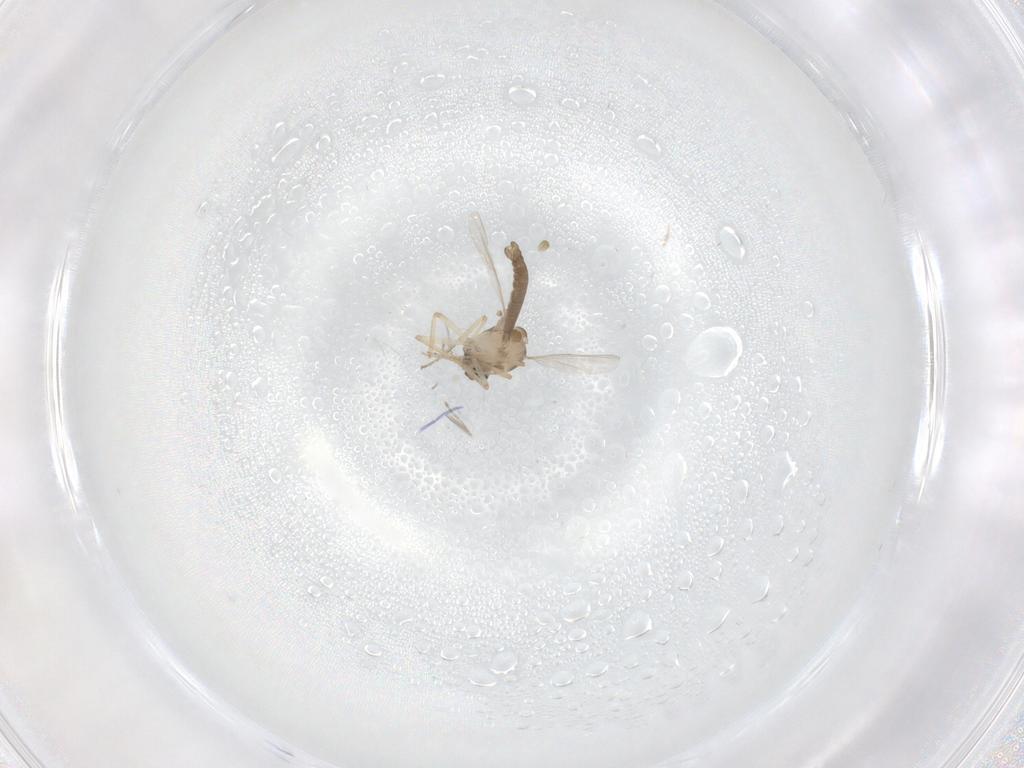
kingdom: Animalia
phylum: Arthropoda
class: Insecta
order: Diptera
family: Ceratopogonidae
